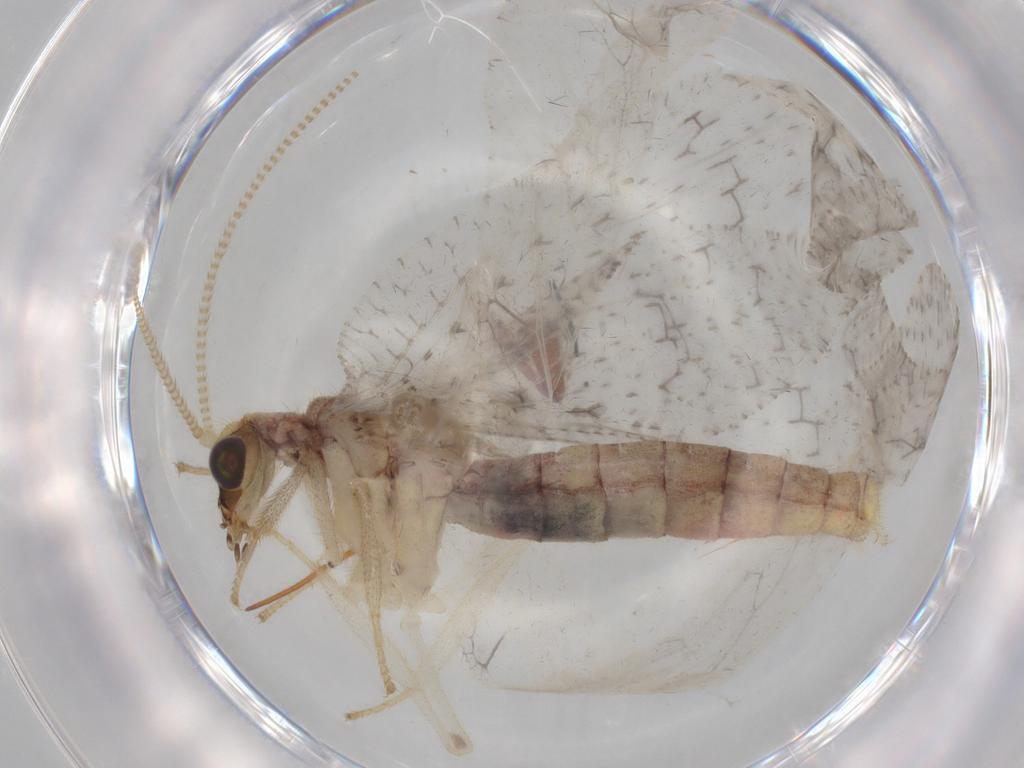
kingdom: Animalia
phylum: Arthropoda
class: Insecta
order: Neuroptera
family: Hemerobiidae
